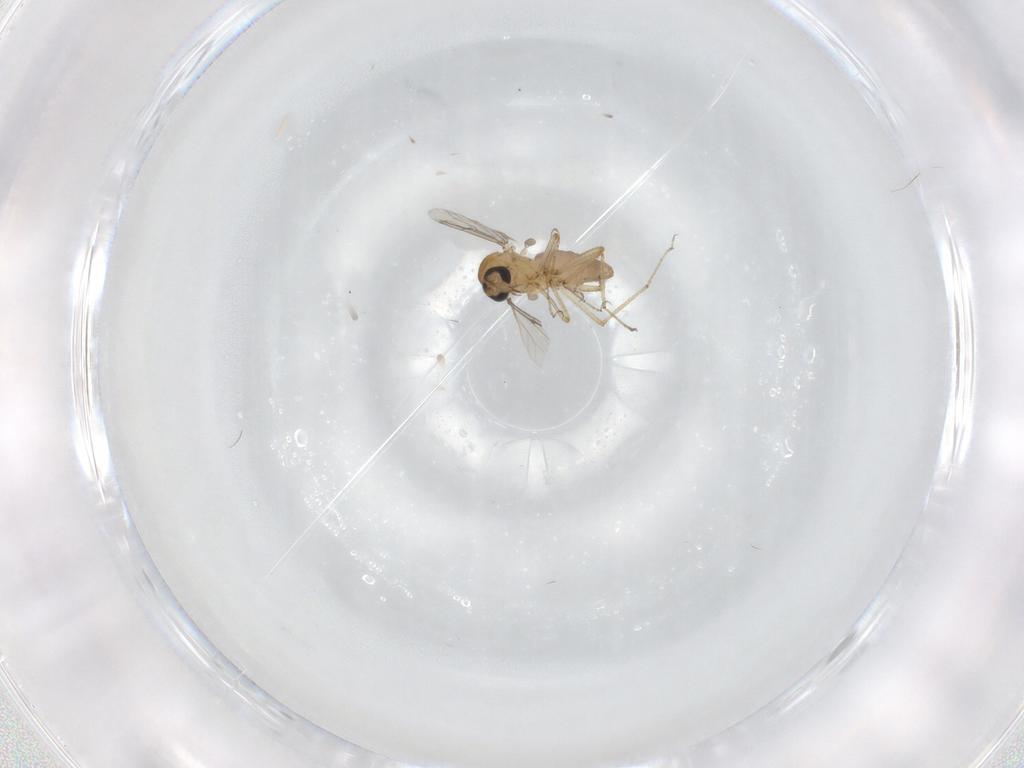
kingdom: Animalia
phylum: Arthropoda
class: Insecta
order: Diptera
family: Ceratopogonidae
